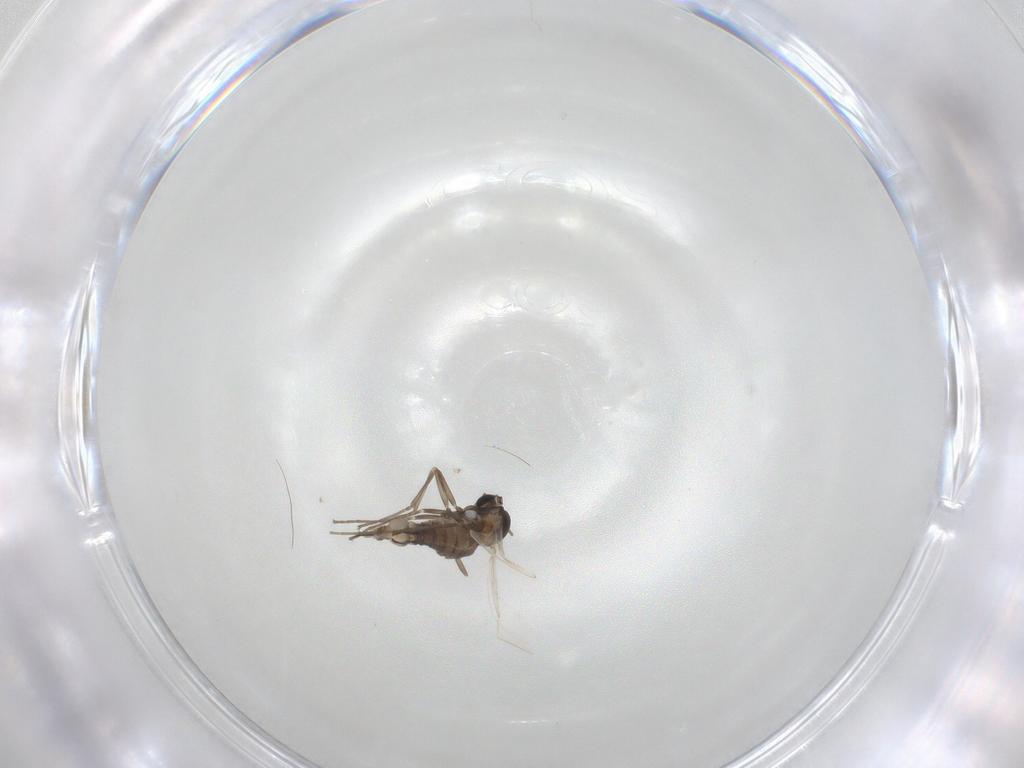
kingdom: Animalia
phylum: Arthropoda
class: Insecta
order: Diptera
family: Cecidomyiidae
